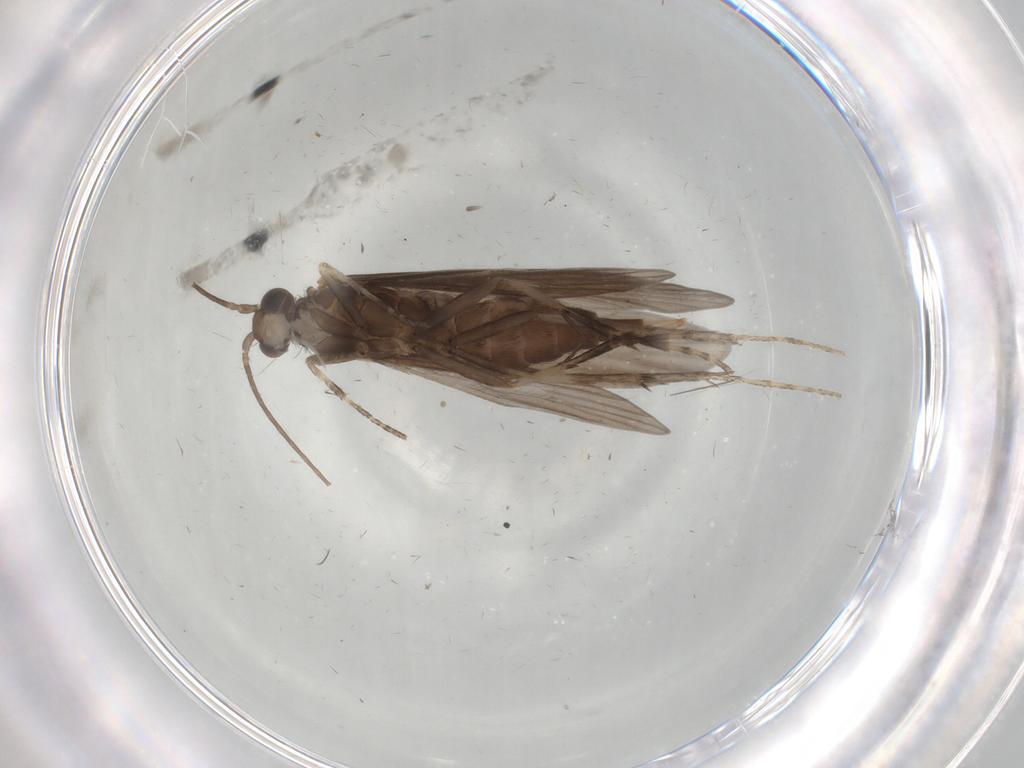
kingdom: Animalia
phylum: Arthropoda
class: Insecta
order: Trichoptera
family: Xiphocentronidae
